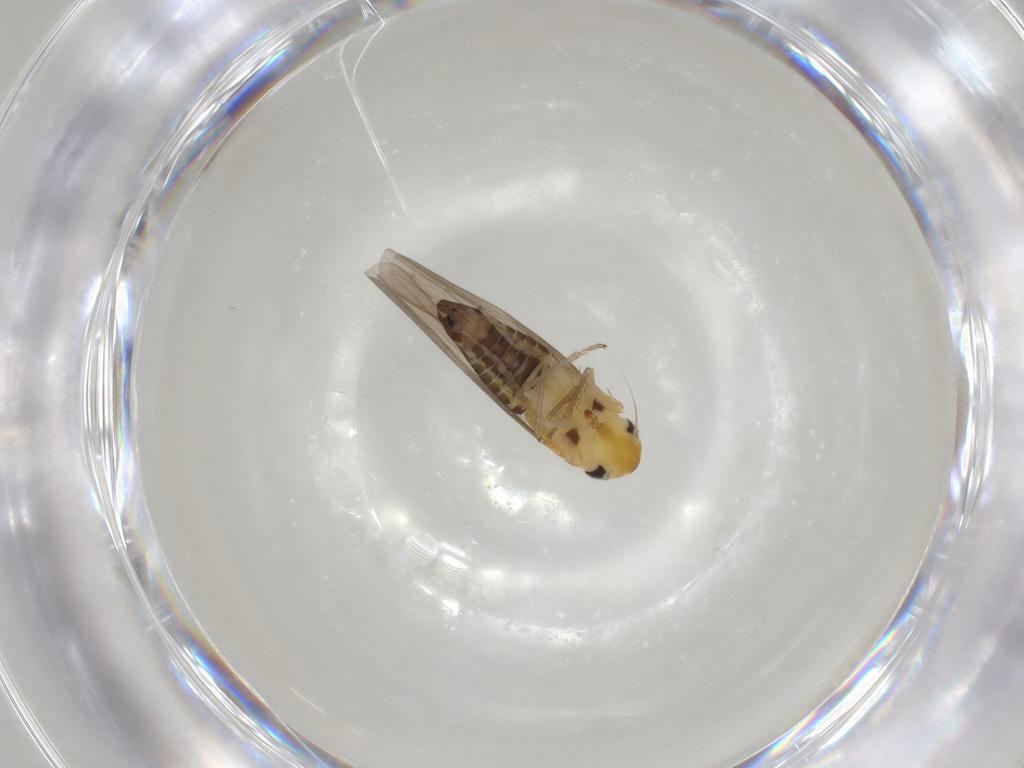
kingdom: Animalia
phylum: Arthropoda
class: Insecta
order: Hemiptera
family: Cicadellidae
